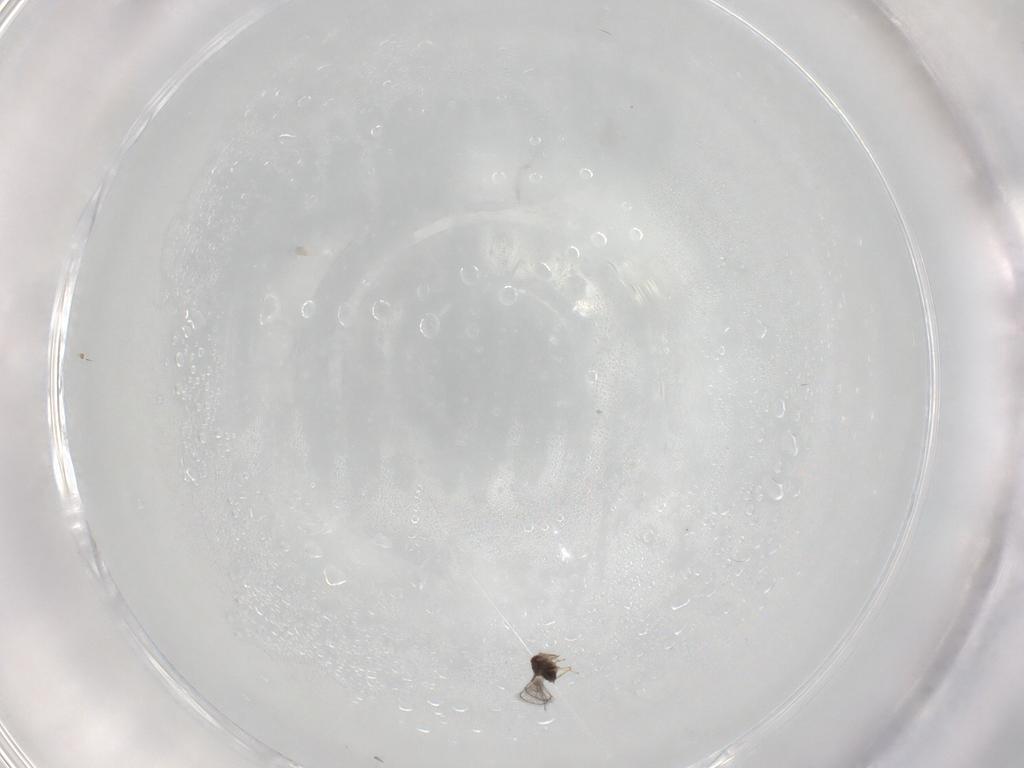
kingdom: Animalia
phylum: Arthropoda
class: Insecta
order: Hymenoptera
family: Trichogrammatidae
